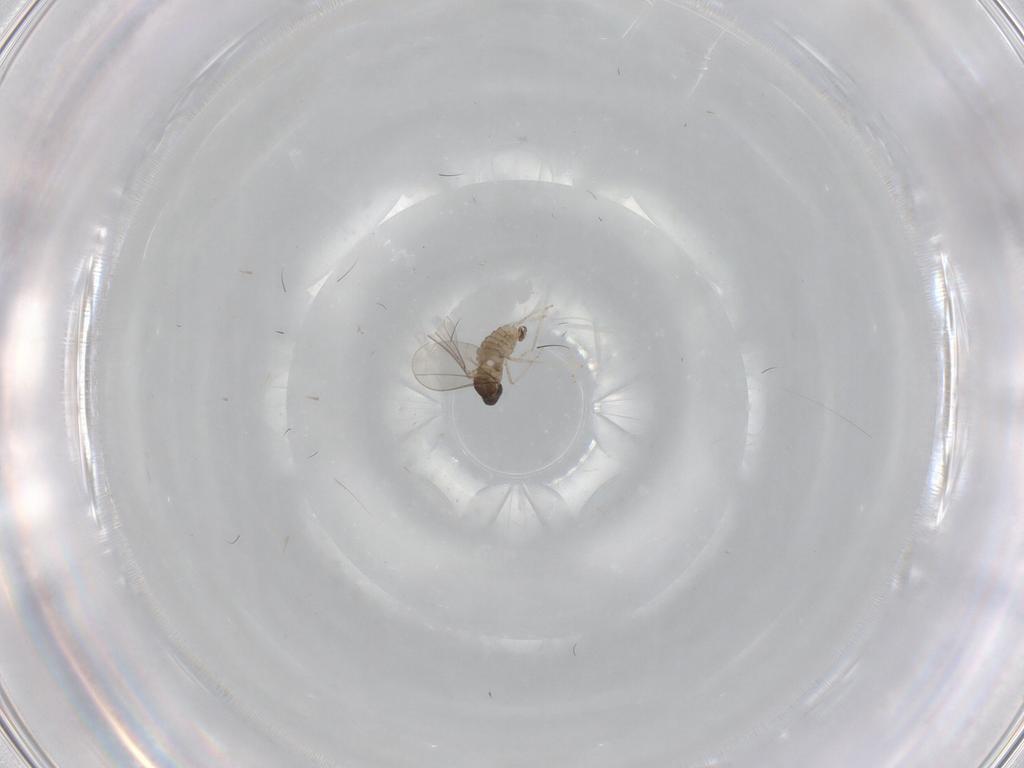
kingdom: Animalia
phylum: Arthropoda
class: Insecta
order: Diptera
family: Cecidomyiidae
